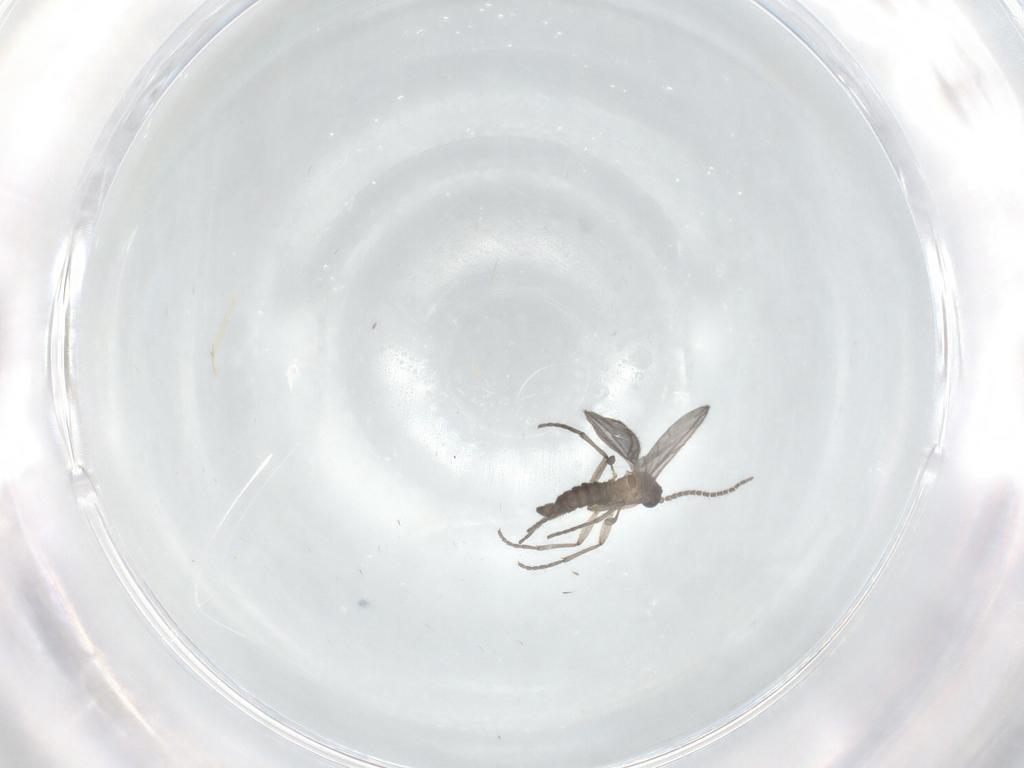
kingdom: Animalia
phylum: Arthropoda
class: Insecta
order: Diptera
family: Sciaridae
